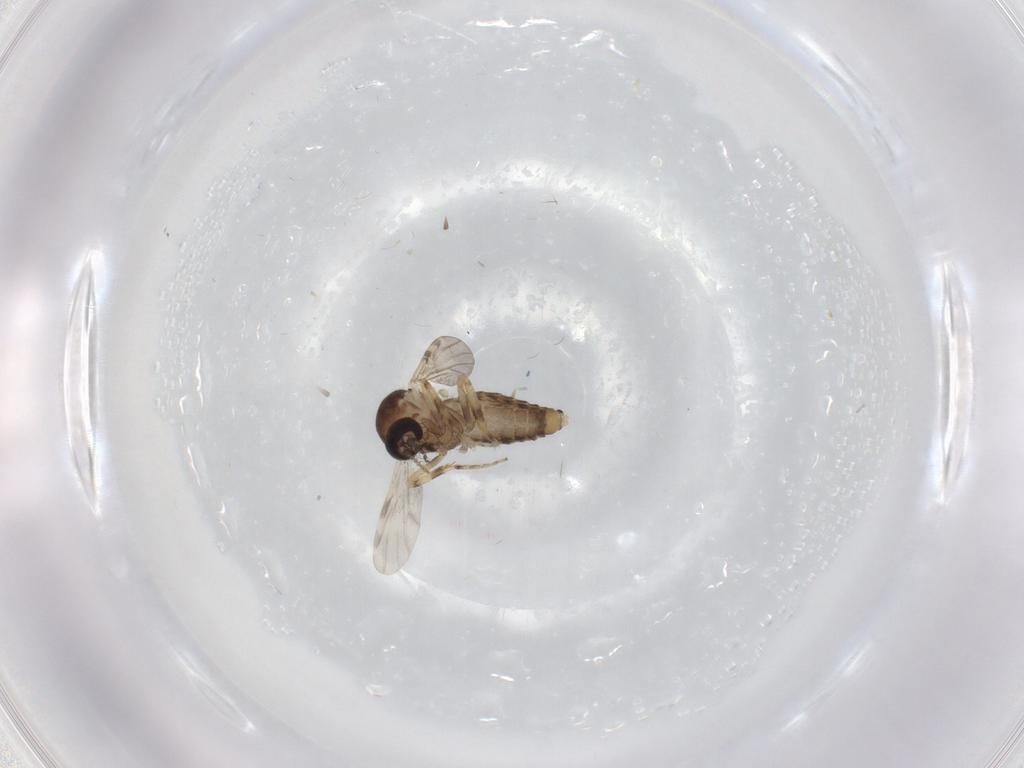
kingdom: Animalia
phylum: Arthropoda
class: Insecta
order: Diptera
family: Ceratopogonidae
